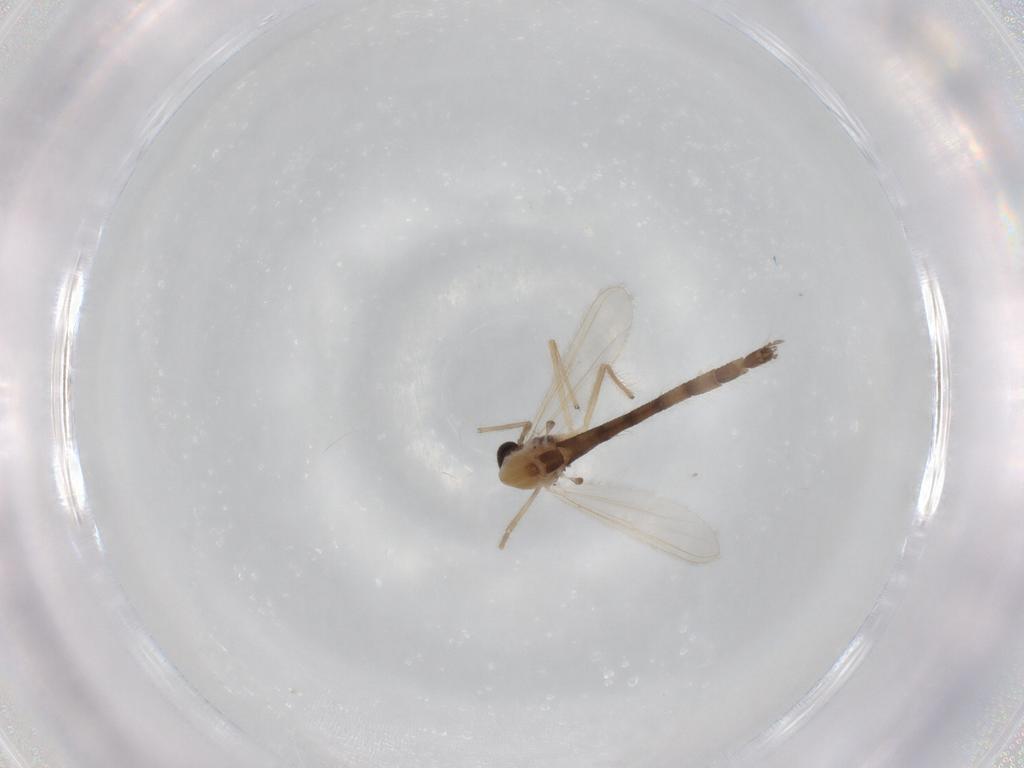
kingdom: Animalia
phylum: Arthropoda
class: Insecta
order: Diptera
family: Chironomidae
